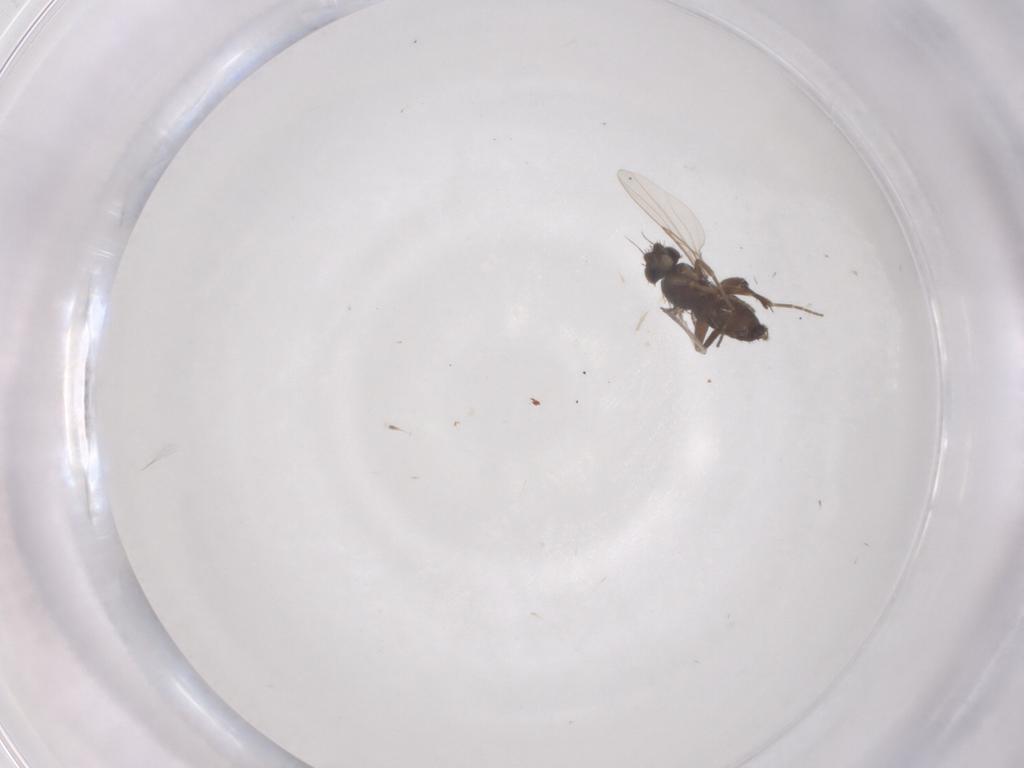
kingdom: Animalia
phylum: Arthropoda
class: Insecta
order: Diptera
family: Phoridae
